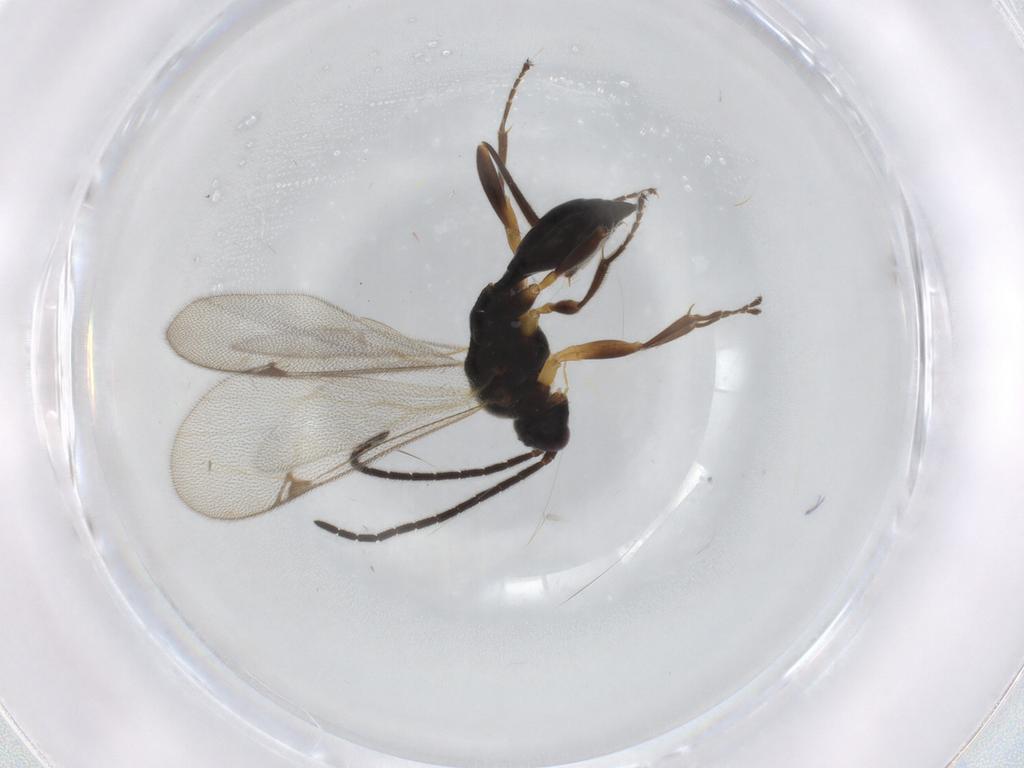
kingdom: Animalia
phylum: Arthropoda
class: Insecta
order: Hymenoptera
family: Proctotrupidae
